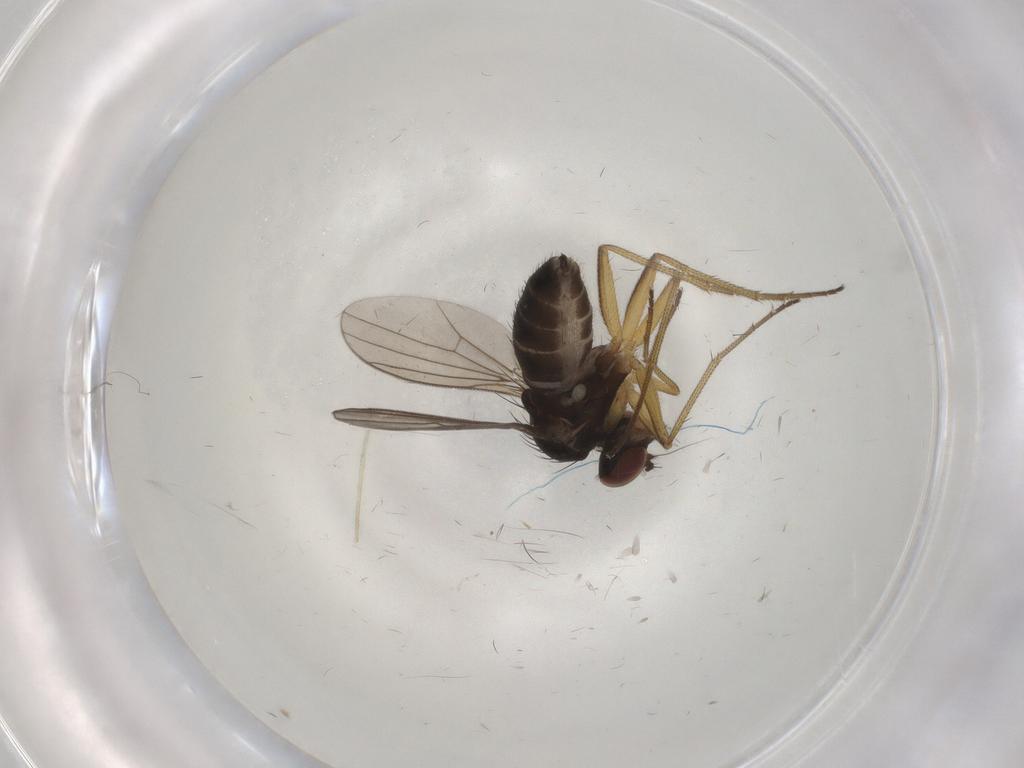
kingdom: Animalia
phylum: Arthropoda
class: Insecta
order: Diptera
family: Dolichopodidae
